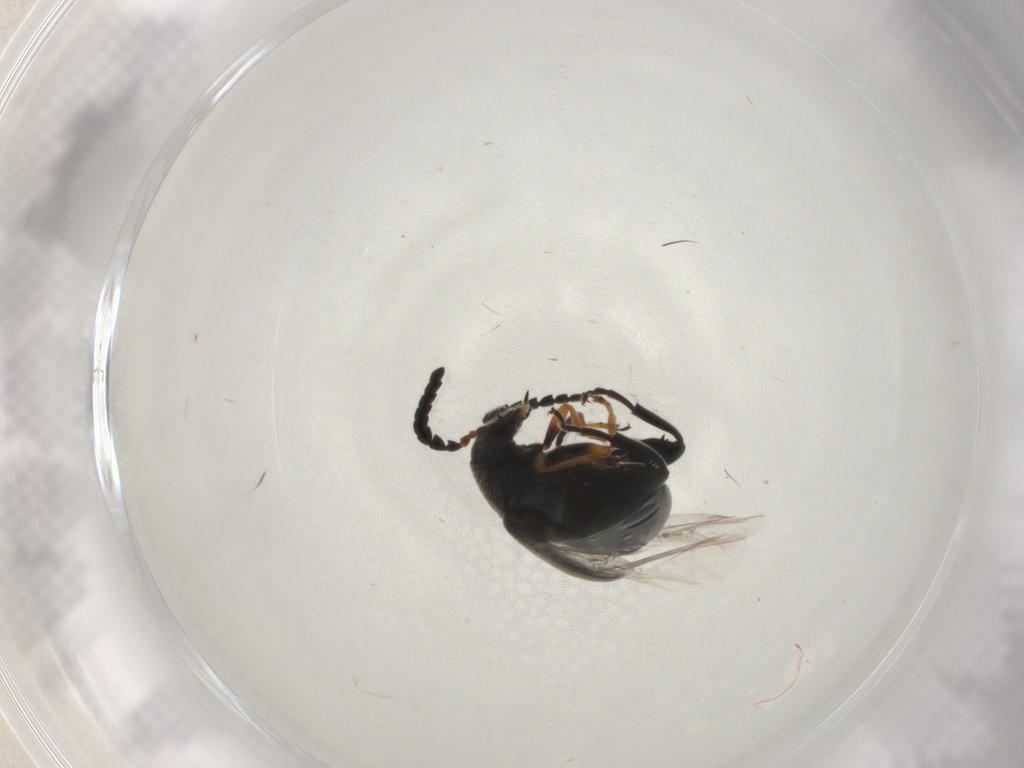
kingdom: Animalia
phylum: Arthropoda
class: Insecta
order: Coleoptera
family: Chrysomelidae
